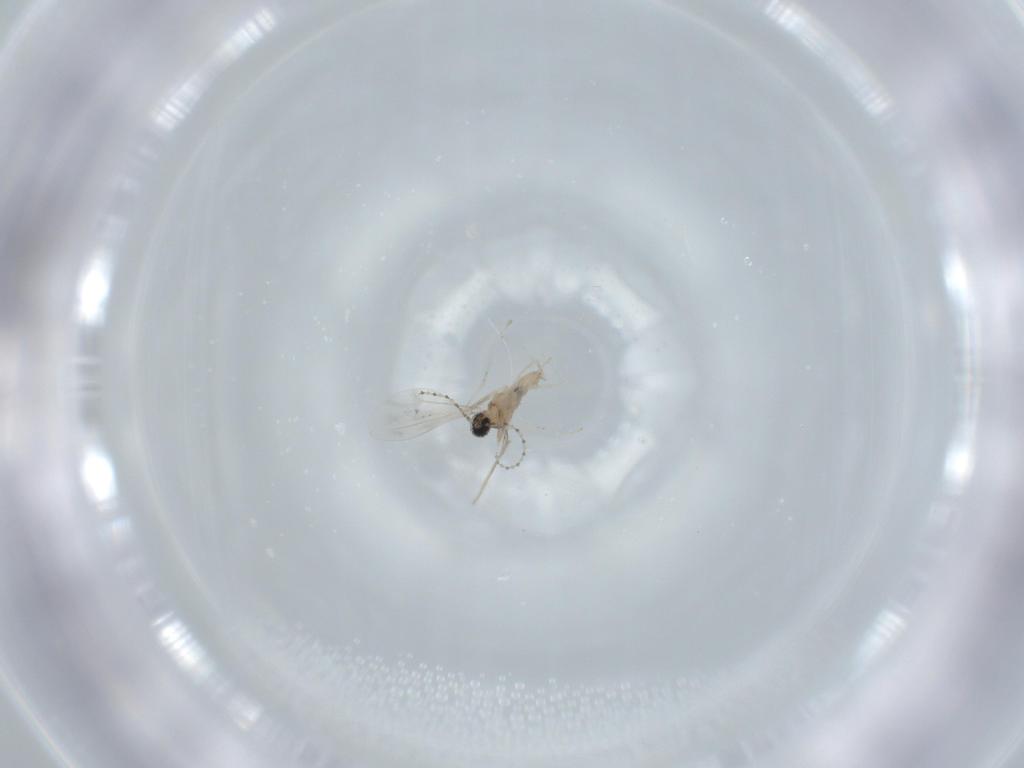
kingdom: Animalia
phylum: Arthropoda
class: Insecta
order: Diptera
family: Cecidomyiidae
